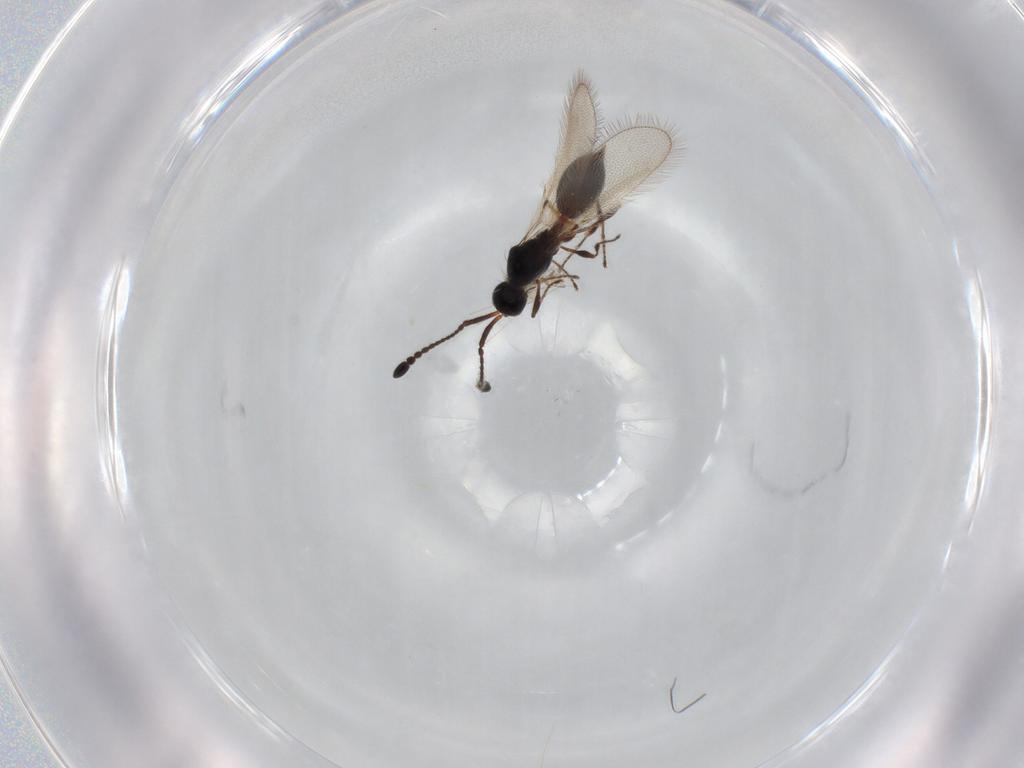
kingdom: Animalia
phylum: Arthropoda
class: Insecta
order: Hymenoptera
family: Diapriidae
